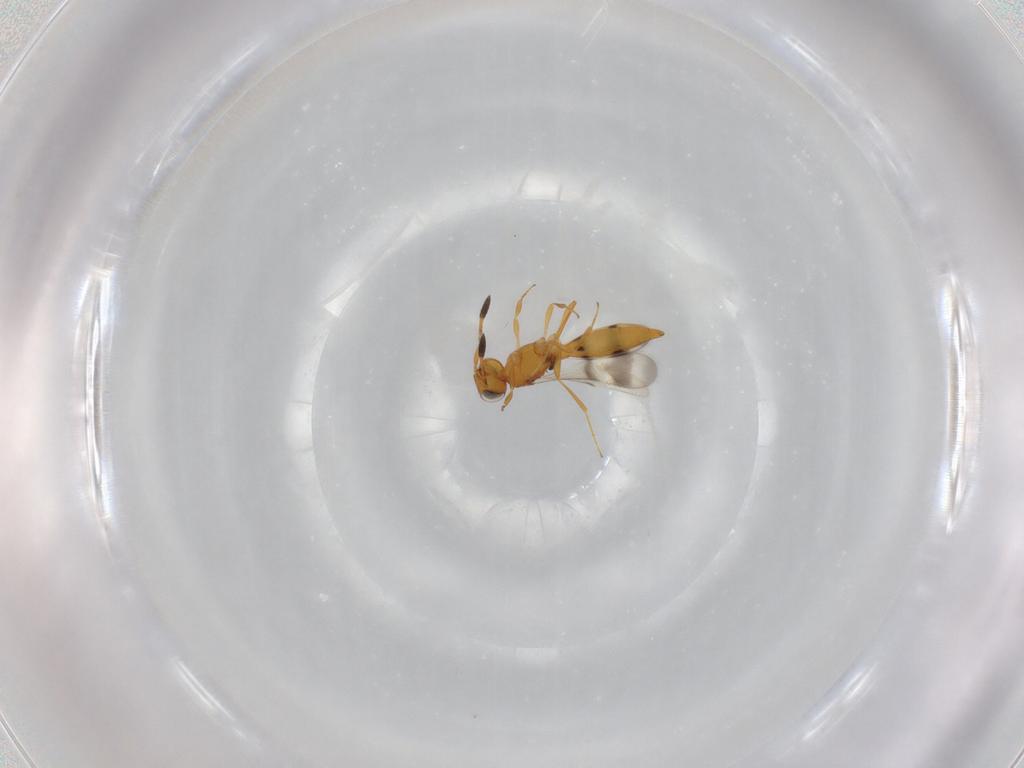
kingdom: Animalia
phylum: Arthropoda
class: Insecta
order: Hymenoptera
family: Scelionidae
